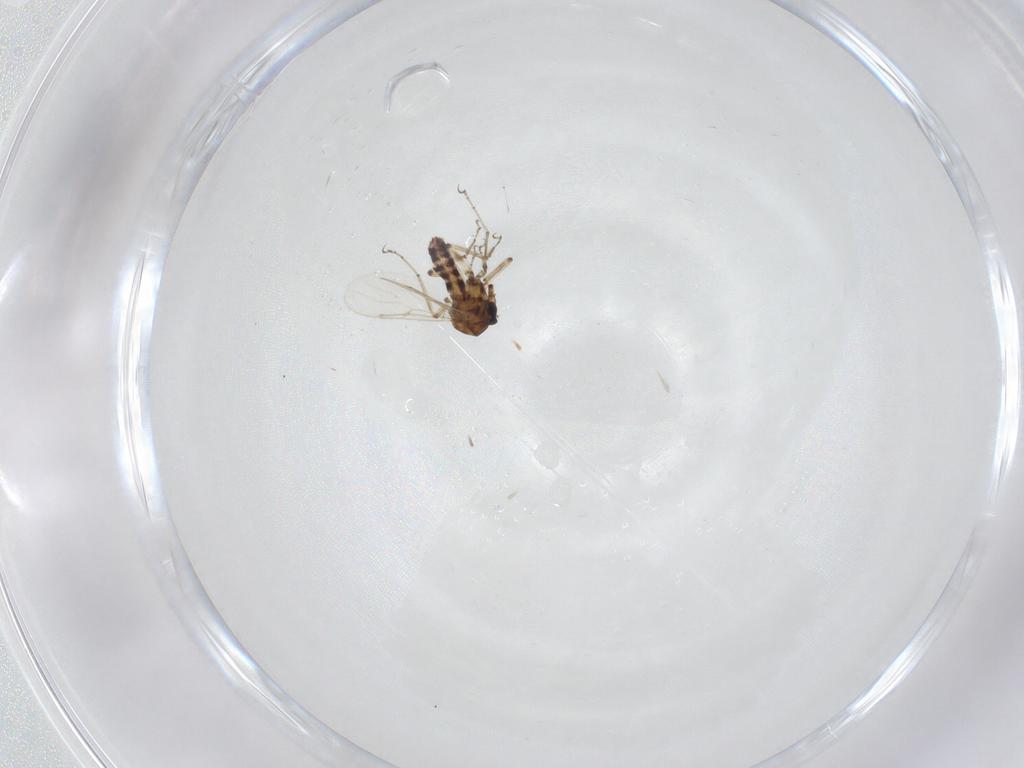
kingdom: Animalia
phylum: Arthropoda
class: Insecta
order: Diptera
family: Ceratopogonidae
